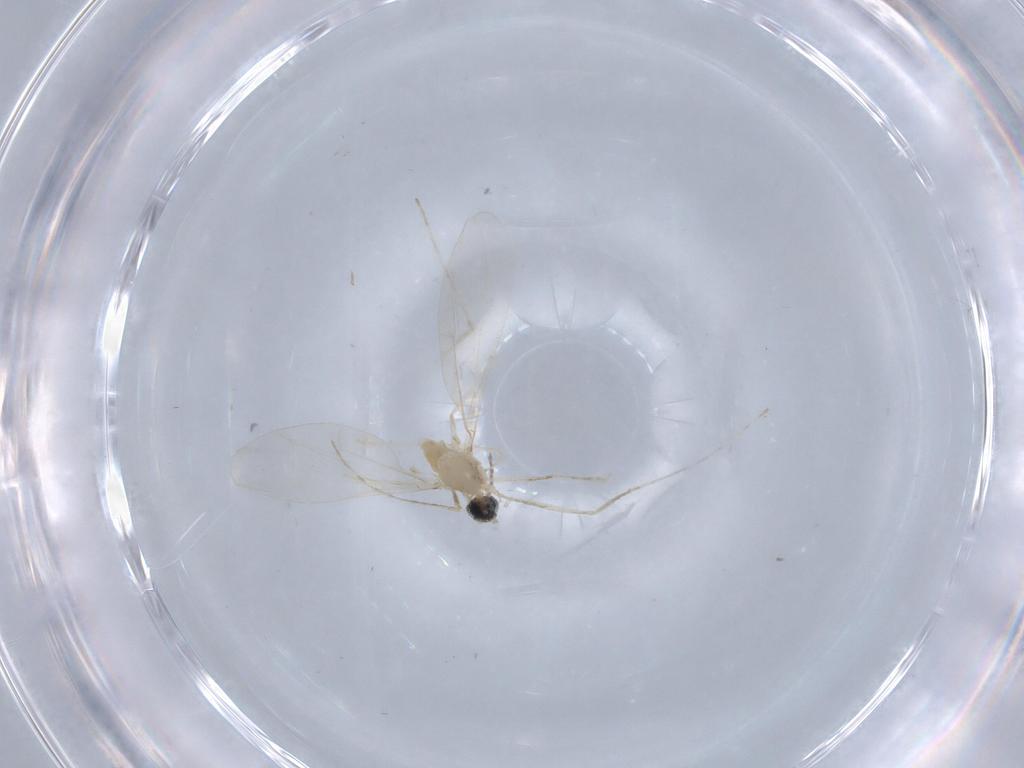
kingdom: Animalia
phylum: Arthropoda
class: Insecta
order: Diptera
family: Cecidomyiidae
